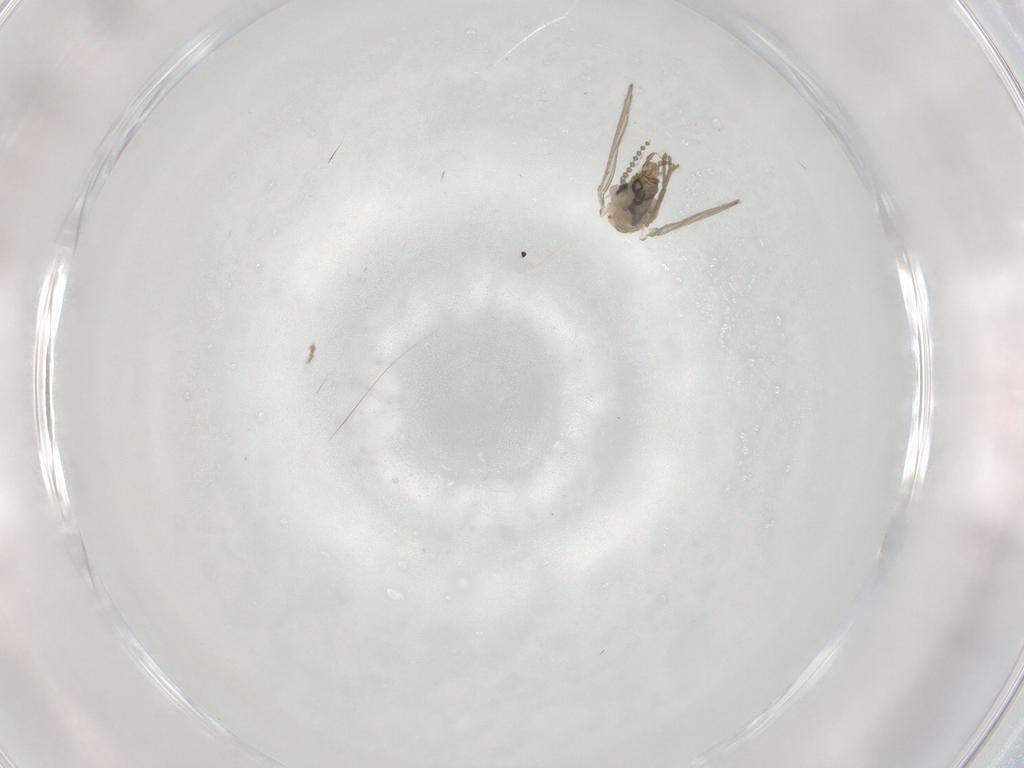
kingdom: Animalia
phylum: Arthropoda
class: Insecta
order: Diptera
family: Psychodidae
